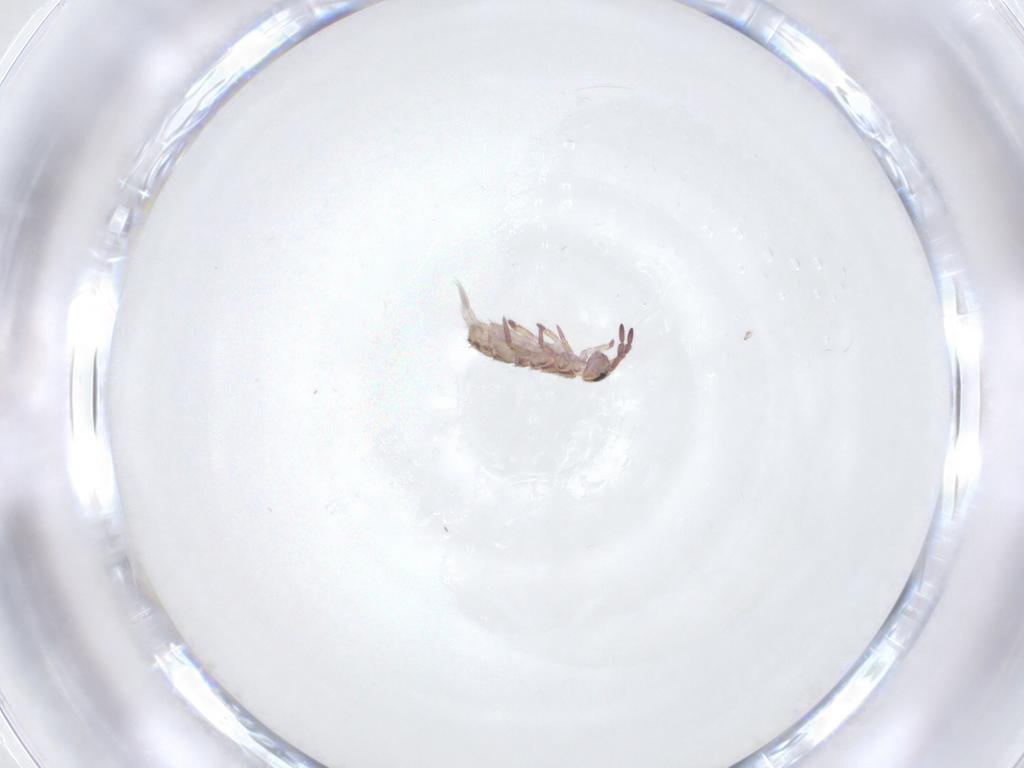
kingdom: Animalia
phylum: Arthropoda
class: Collembola
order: Entomobryomorpha
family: Isotomidae
